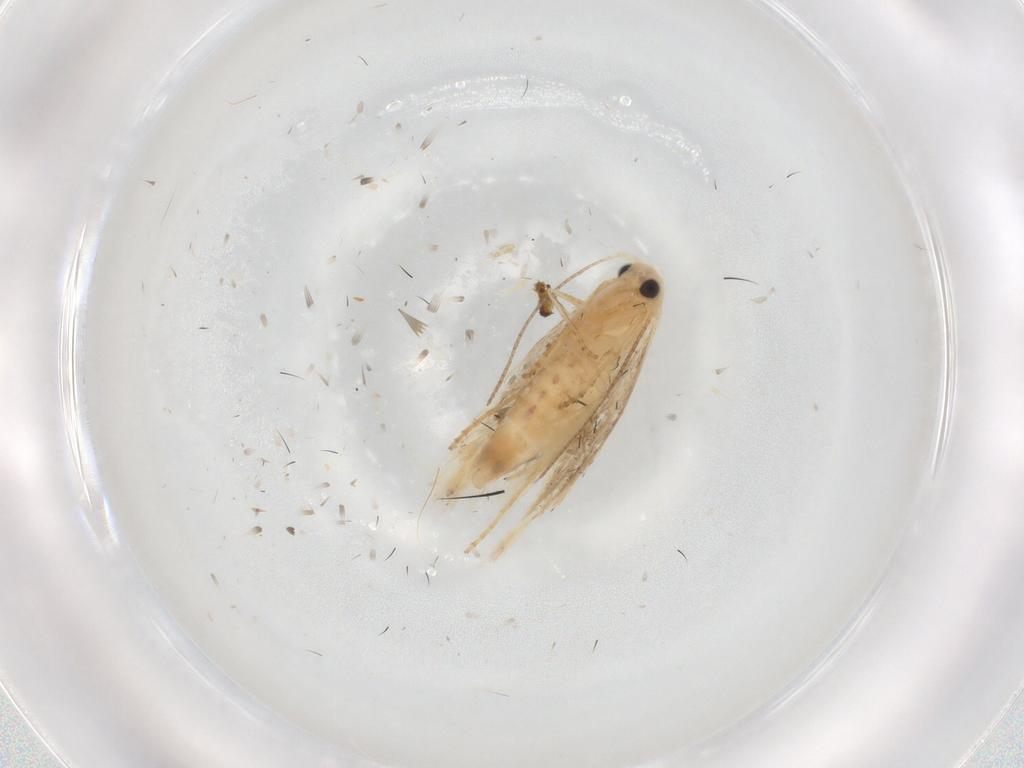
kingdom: Animalia
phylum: Arthropoda
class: Insecta
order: Lepidoptera
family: Bucculatricidae
